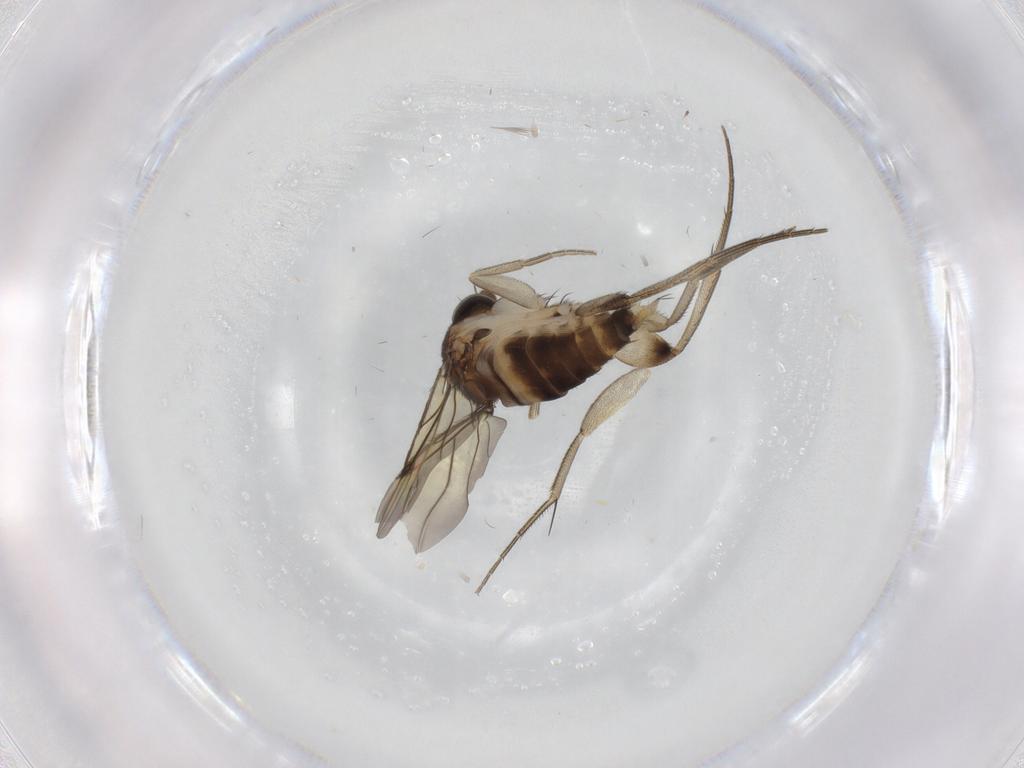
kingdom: Animalia
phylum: Arthropoda
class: Insecta
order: Diptera
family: Phoridae
